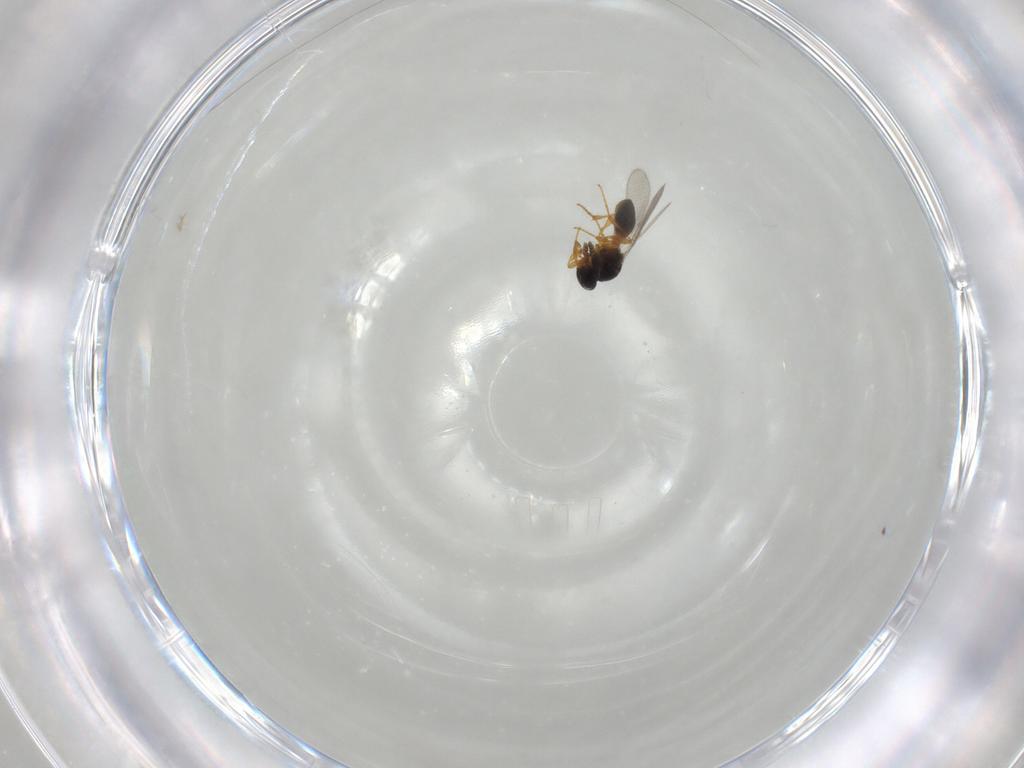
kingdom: Animalia
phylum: Arthropoda
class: Insecta
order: Hymenoptera
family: Platygastridae
